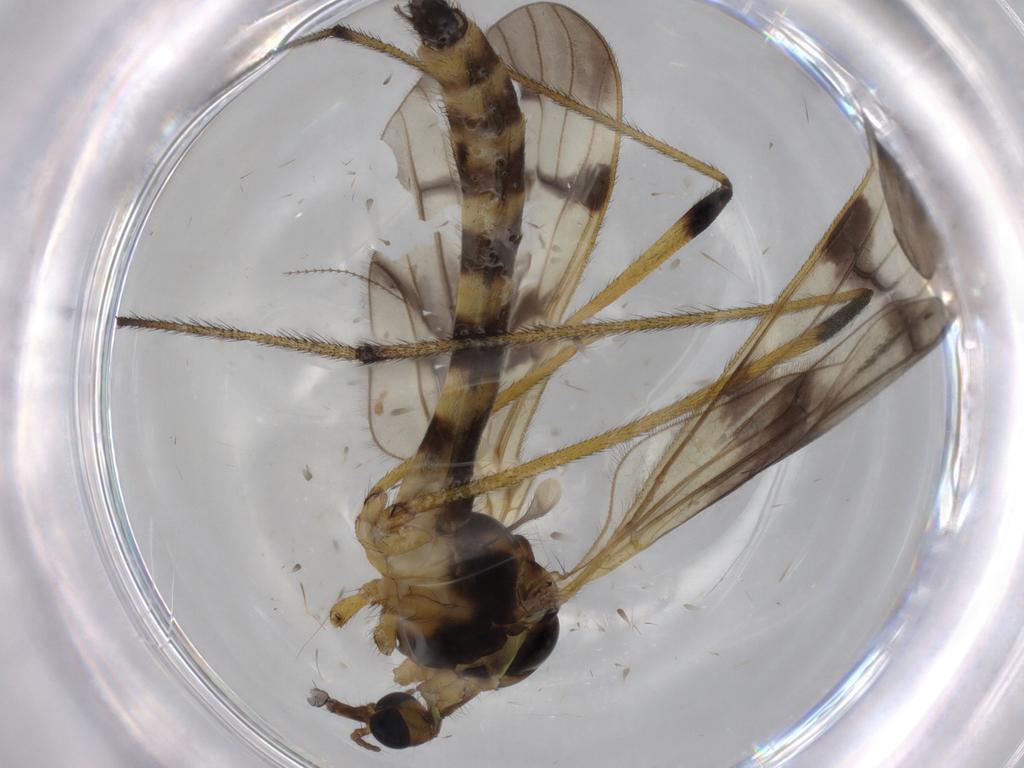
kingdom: Animalia
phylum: Arthropoda
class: Insecta
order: Diptera
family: Limoniidae
